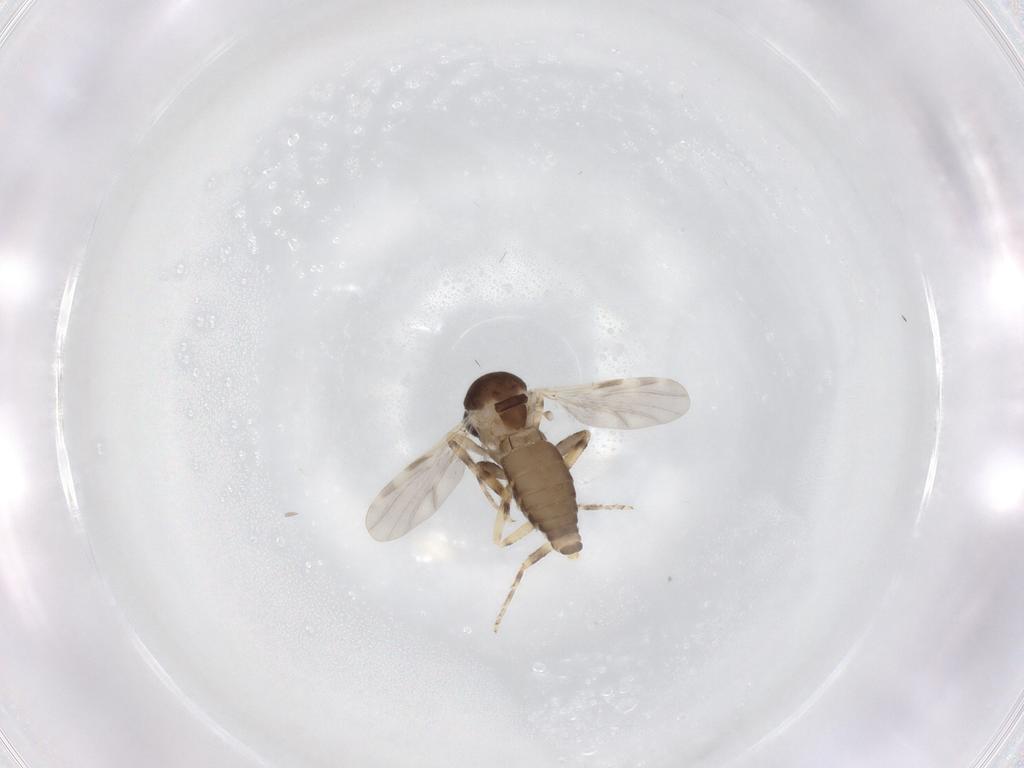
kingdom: Animalia
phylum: Arthropoda
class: Insecta
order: Diptera
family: Ceratopogonidae
